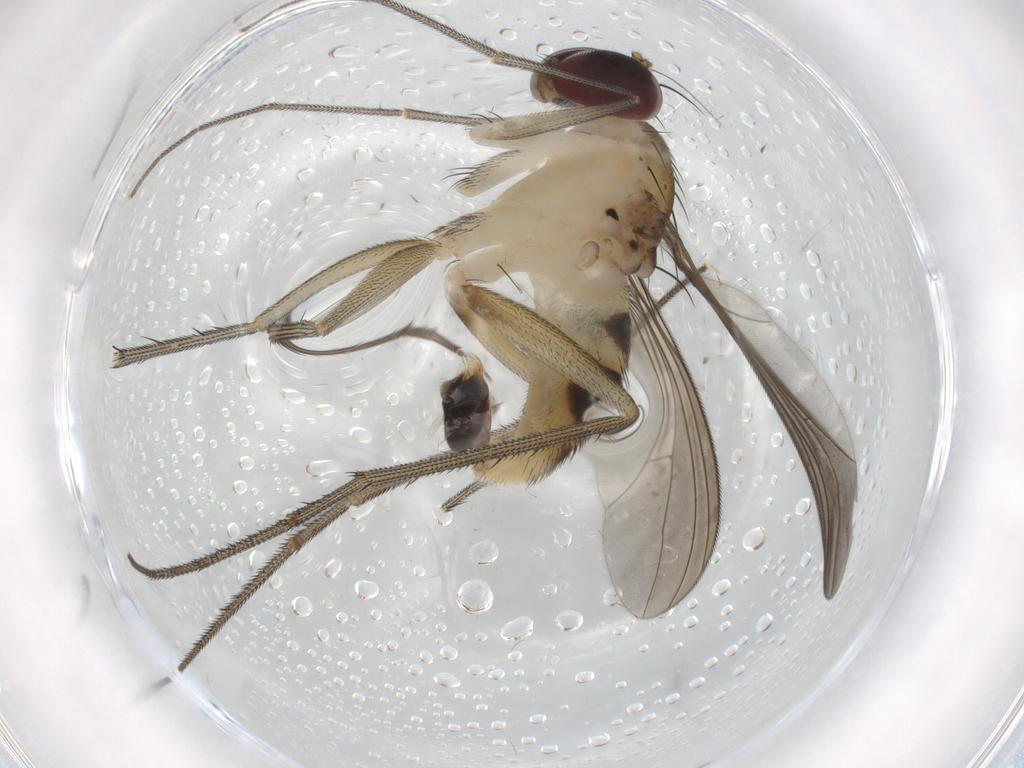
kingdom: Animalia
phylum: Arthropoda
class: Insecta
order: Diptera
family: Dolichopodidae
